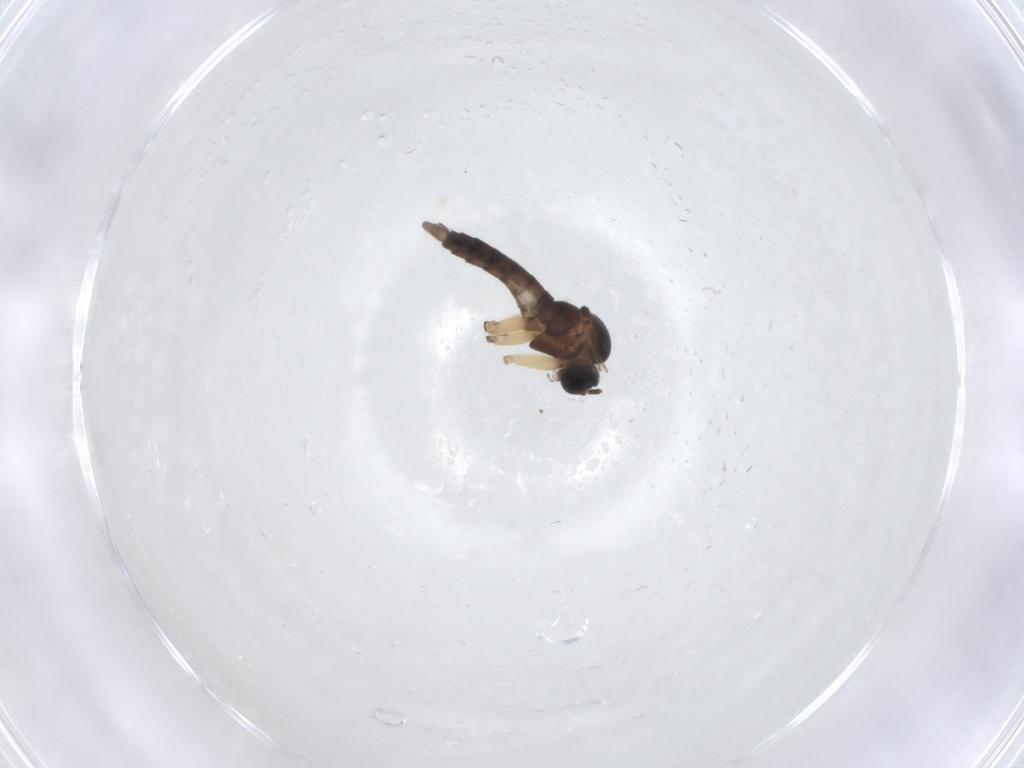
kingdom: Animalia
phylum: Arthropoda
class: Insecta
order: Diptera
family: Sciaridae
